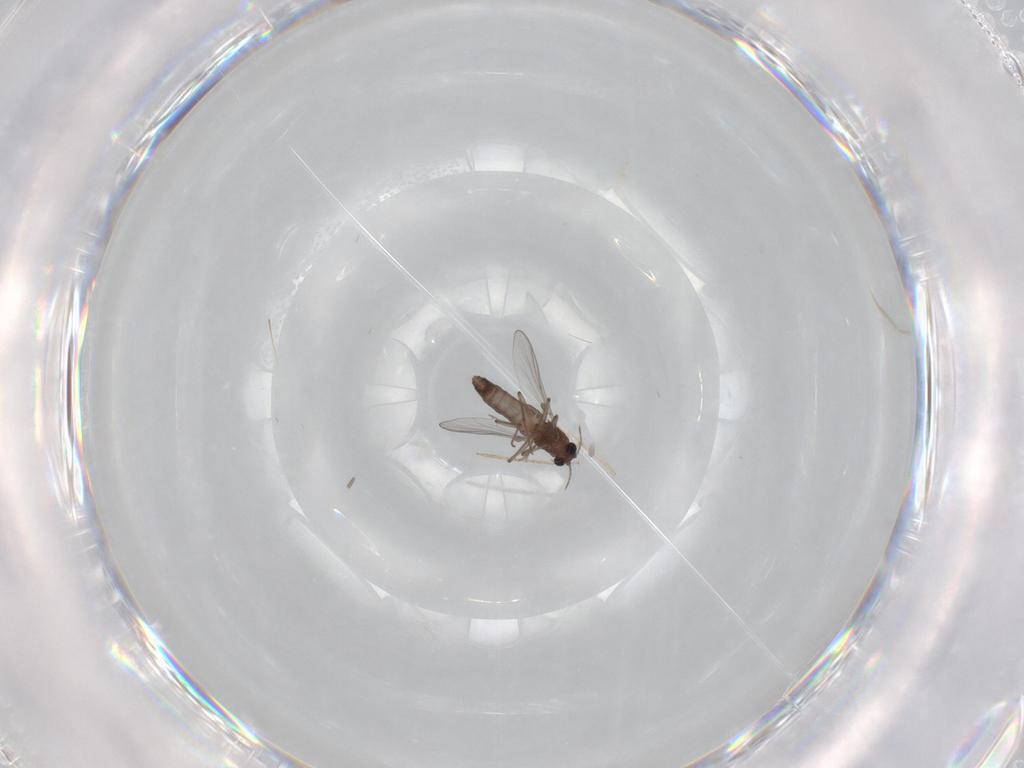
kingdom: Animalia
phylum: Arthropoda
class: Insecta
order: Diptera
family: Chironomidae
